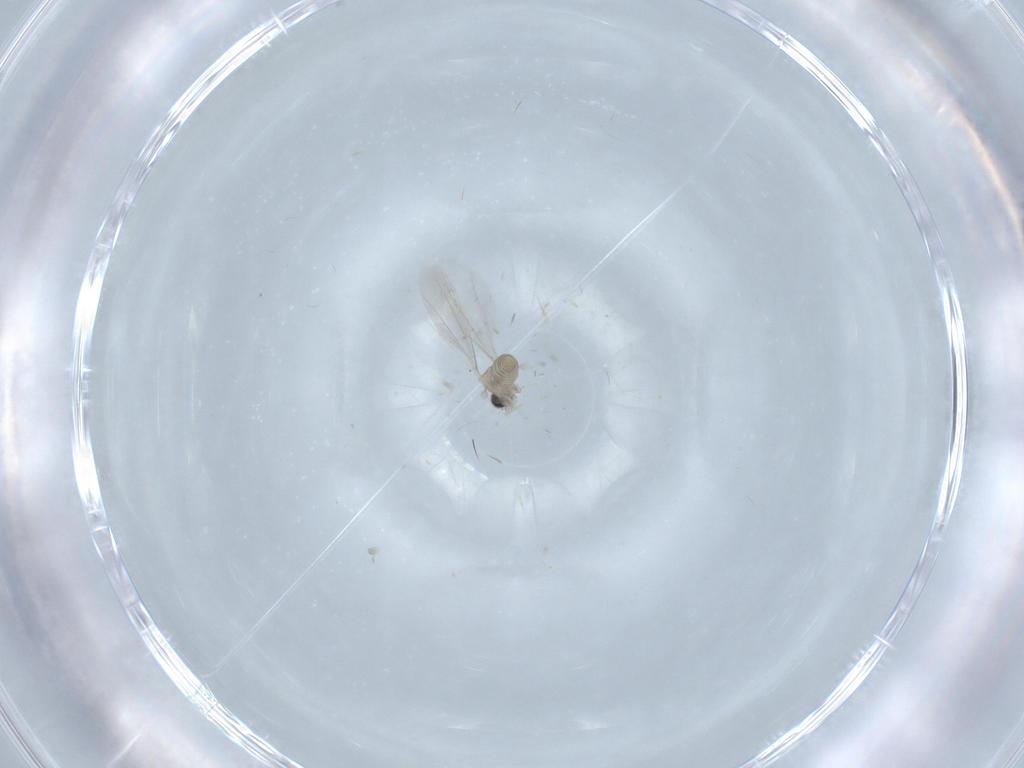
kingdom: Animalia
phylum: Arthropoda
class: Insecta
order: Diptera
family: Cecidomyiidae
